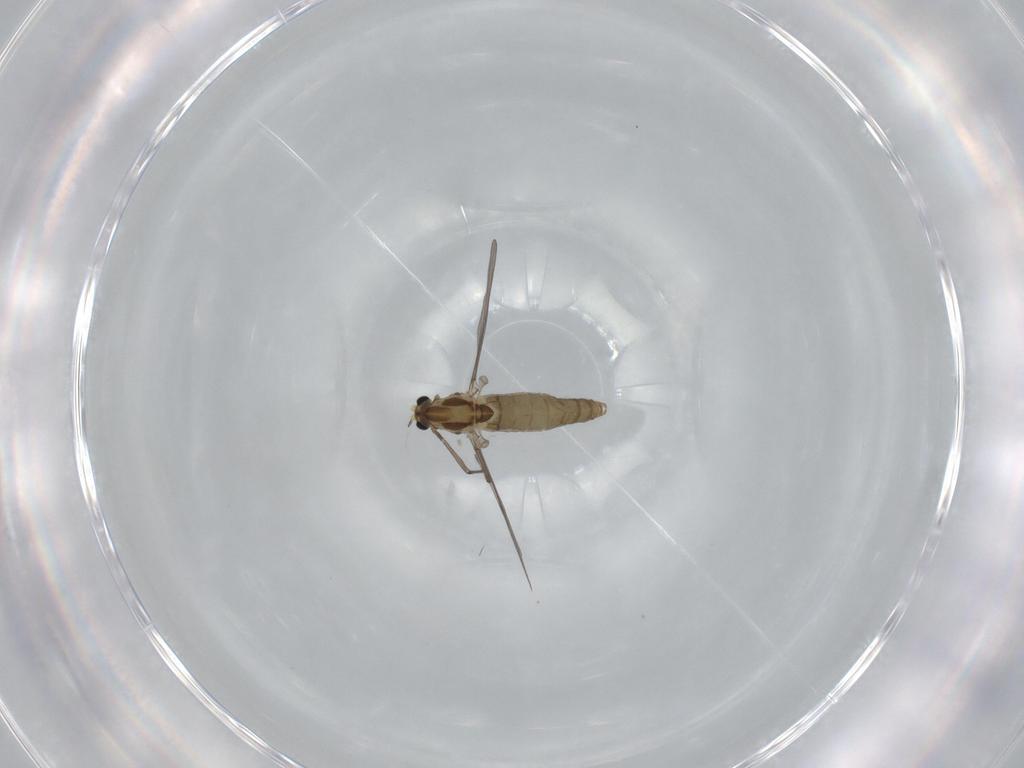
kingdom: Animalia
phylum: Arthropoda
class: Insecta
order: Diptera
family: Chironomidae
